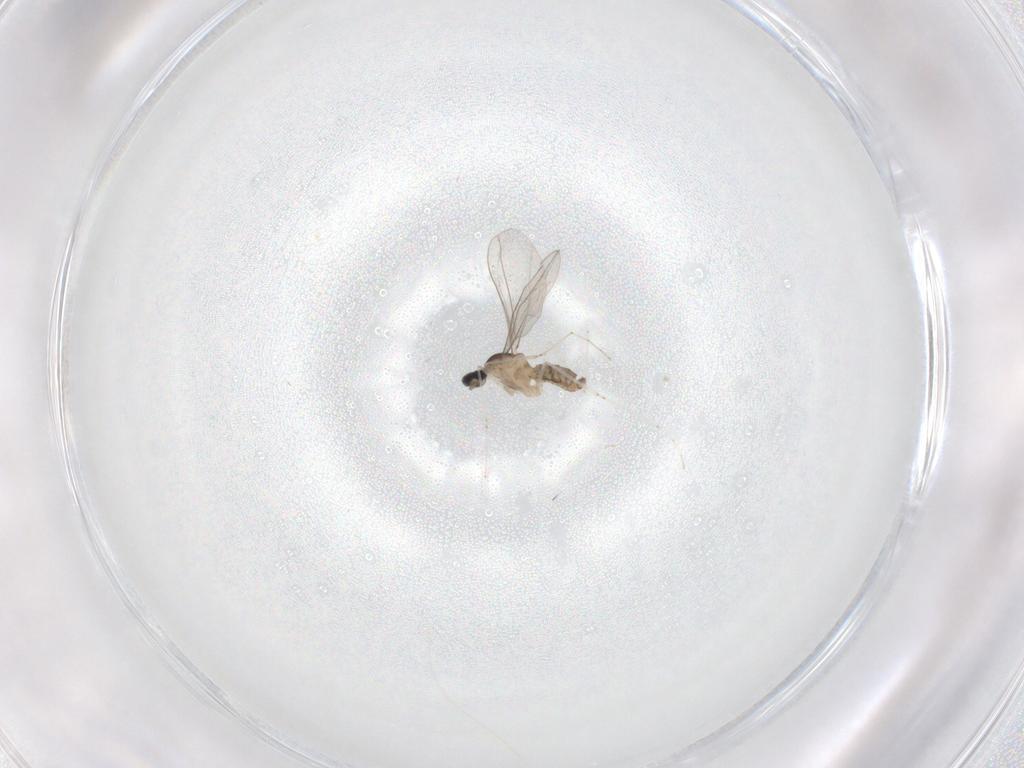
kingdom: Animalia
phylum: Arthropoda
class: Insecta
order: Diptera
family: Cecidomyiidae
